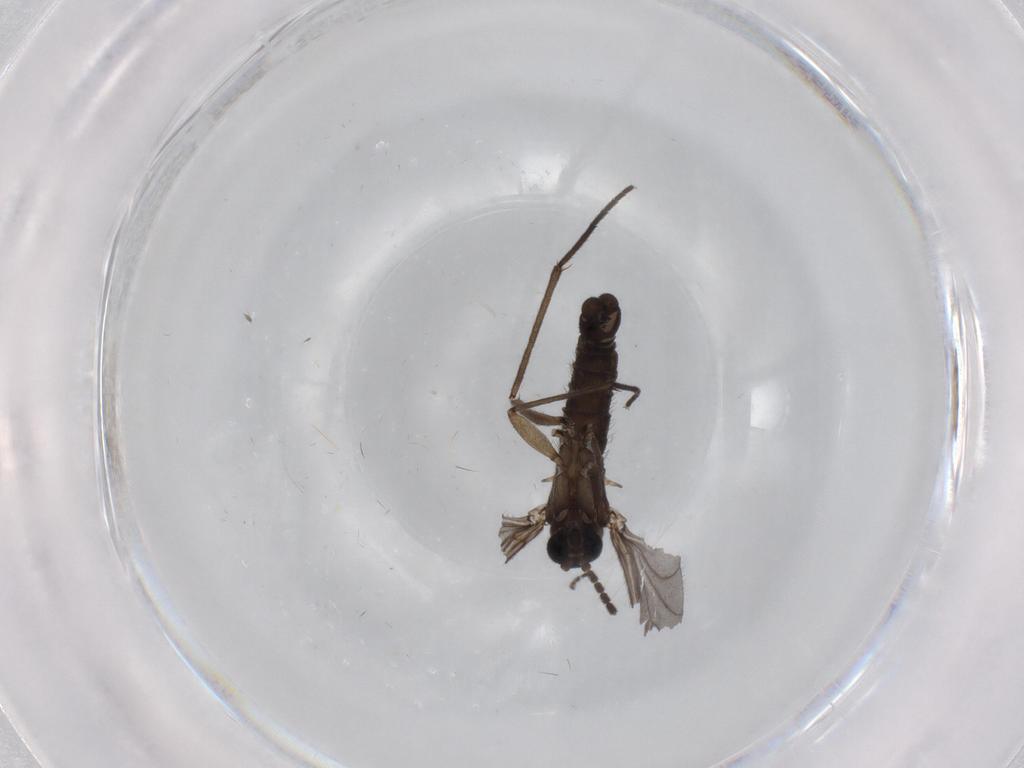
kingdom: Animalia
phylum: Arthropoda
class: Insecta
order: Diptera
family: Sciaridae
